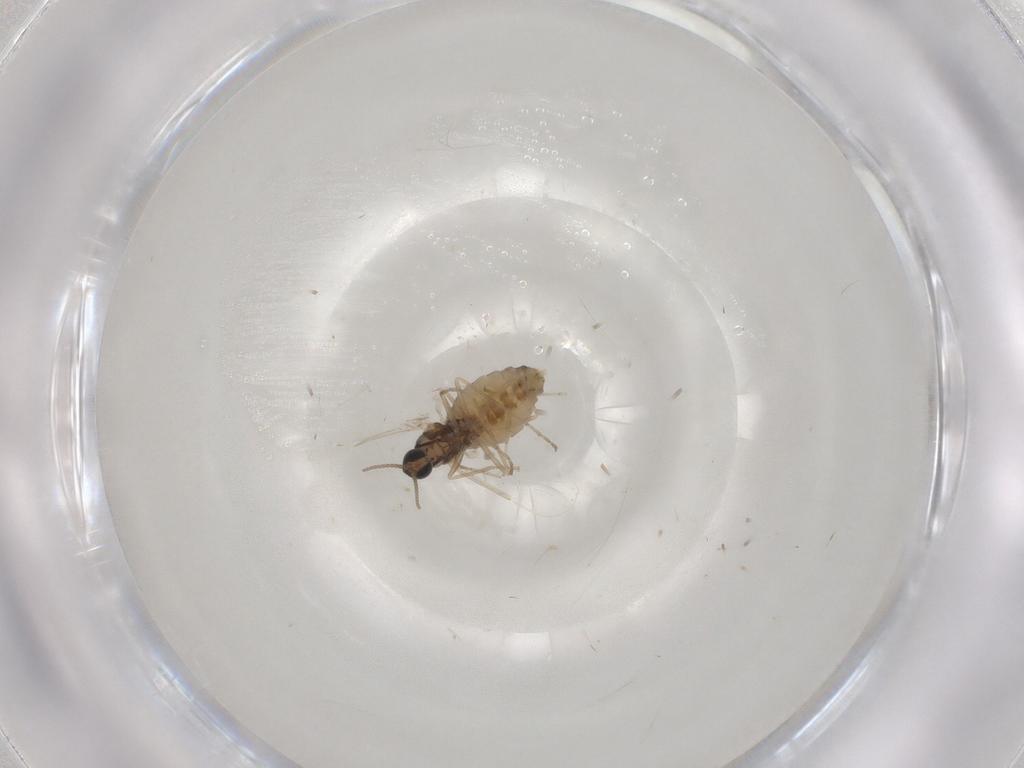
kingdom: Animalia
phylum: Arthropoda
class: Insecta
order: Diptera
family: Cecidomyiidae
